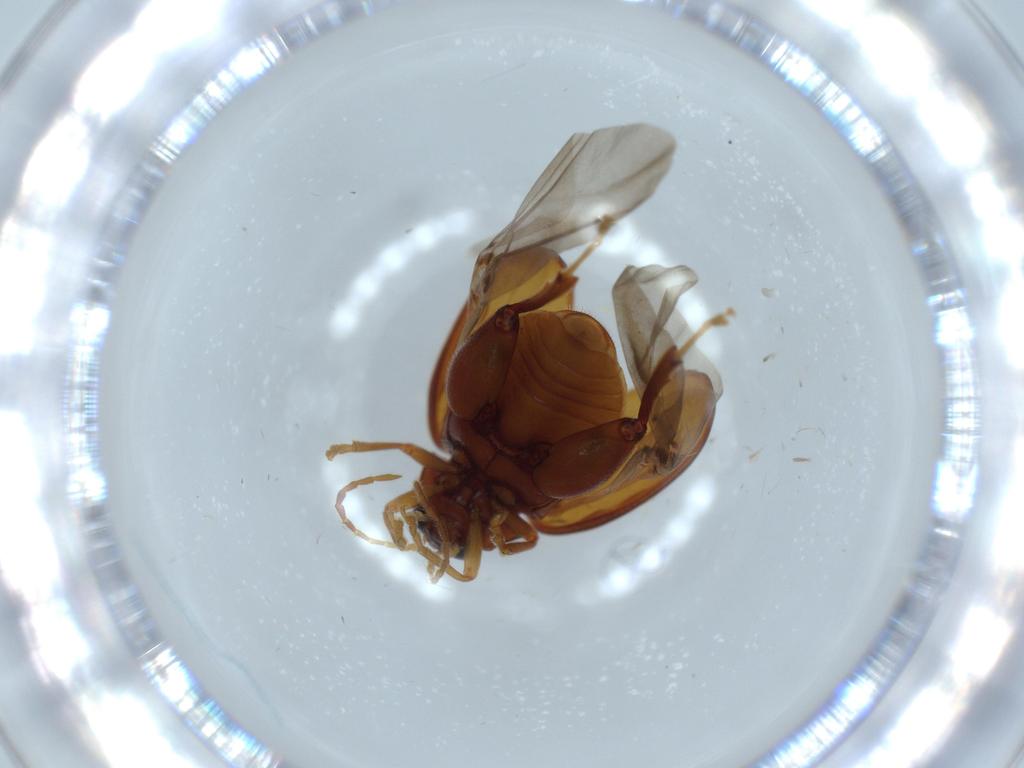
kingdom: Animalia
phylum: Arthropoda
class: Insecta
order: Coleoptera
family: Chrysomelidae
